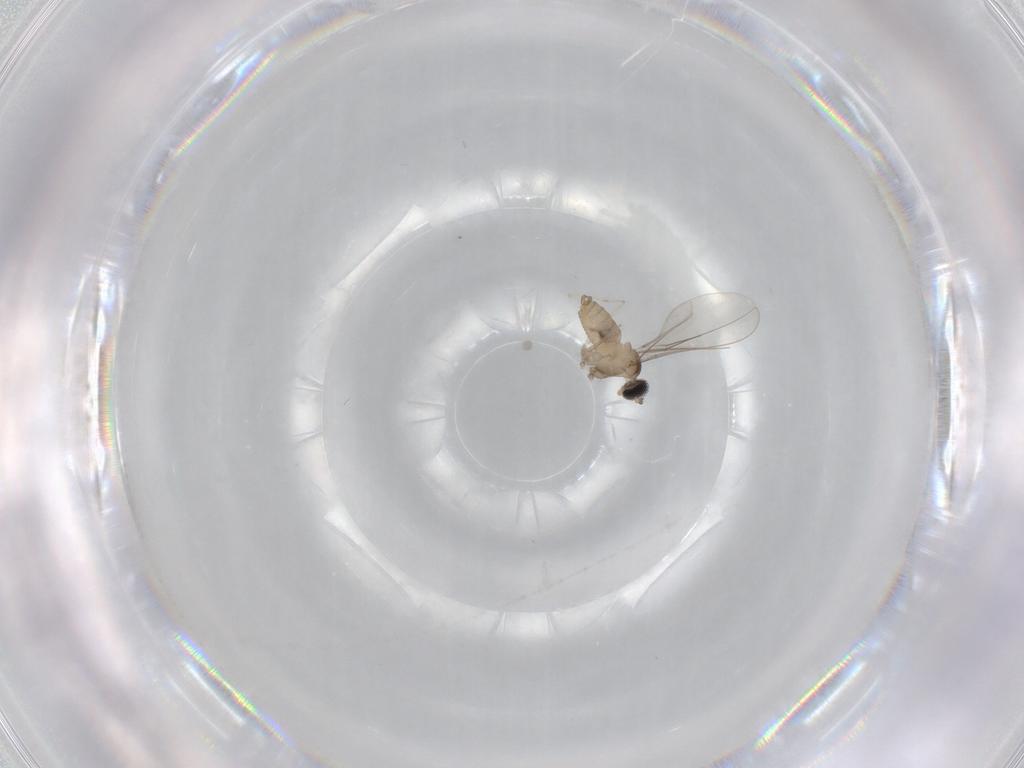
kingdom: Animalia
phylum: Arthropoda
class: Insecta
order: Diptera
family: Cecidomyiidae
